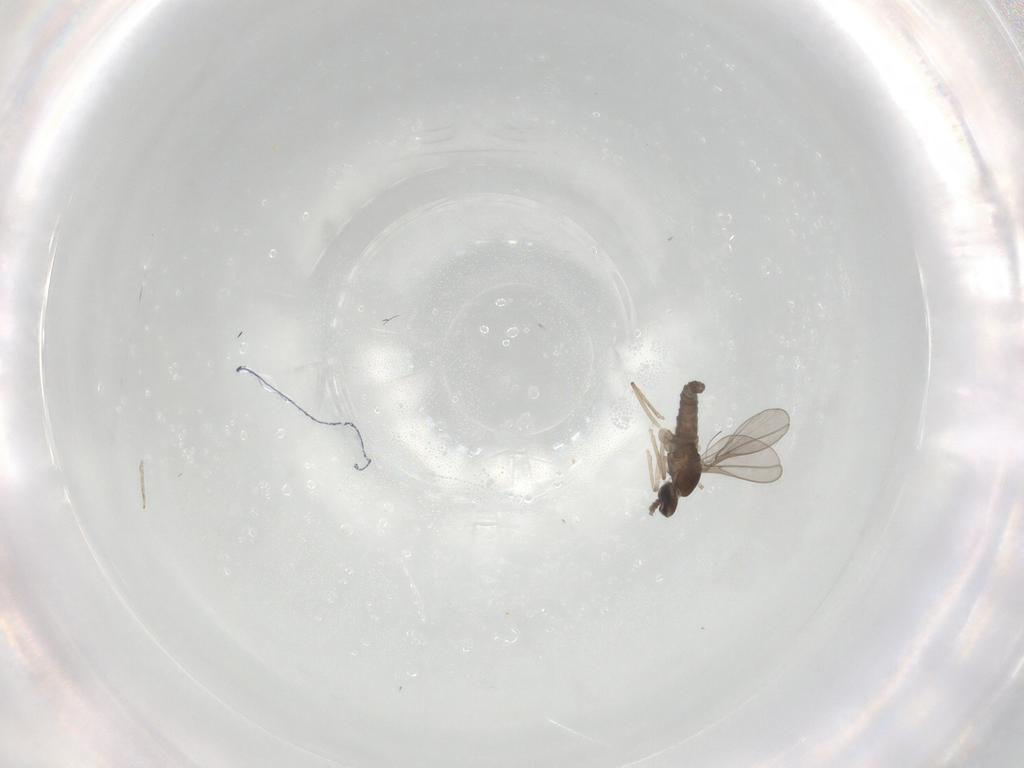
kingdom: Animalia
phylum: Arthropoda
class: Insecta
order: Diptera
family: Cecidomyiidae
